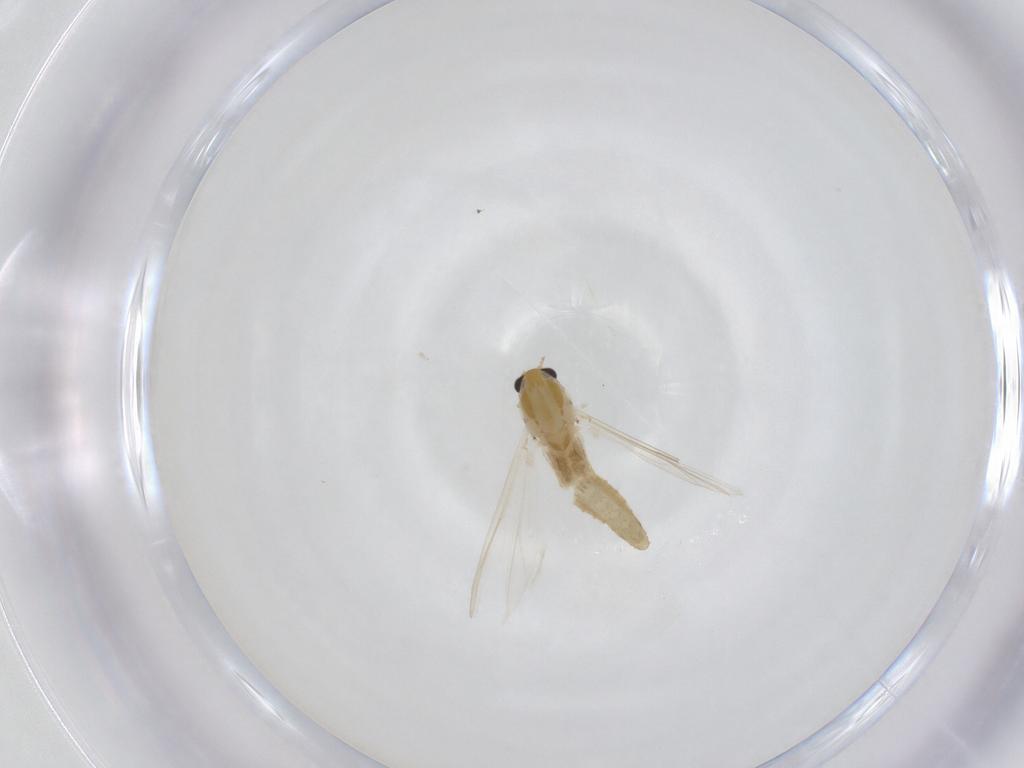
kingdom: Animalia
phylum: Arthropoda
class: Insecta
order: Diptera
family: Chironomidae
